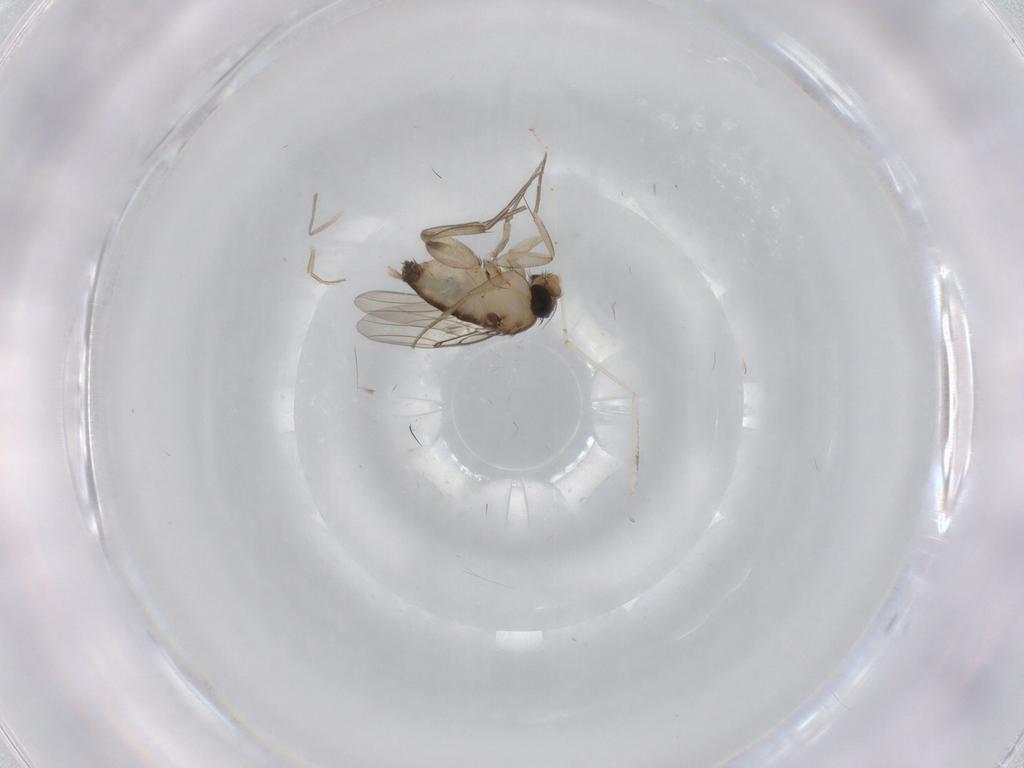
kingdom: Animalia
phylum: Arthropoda
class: Insecta
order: Diptera
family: Phoridae
